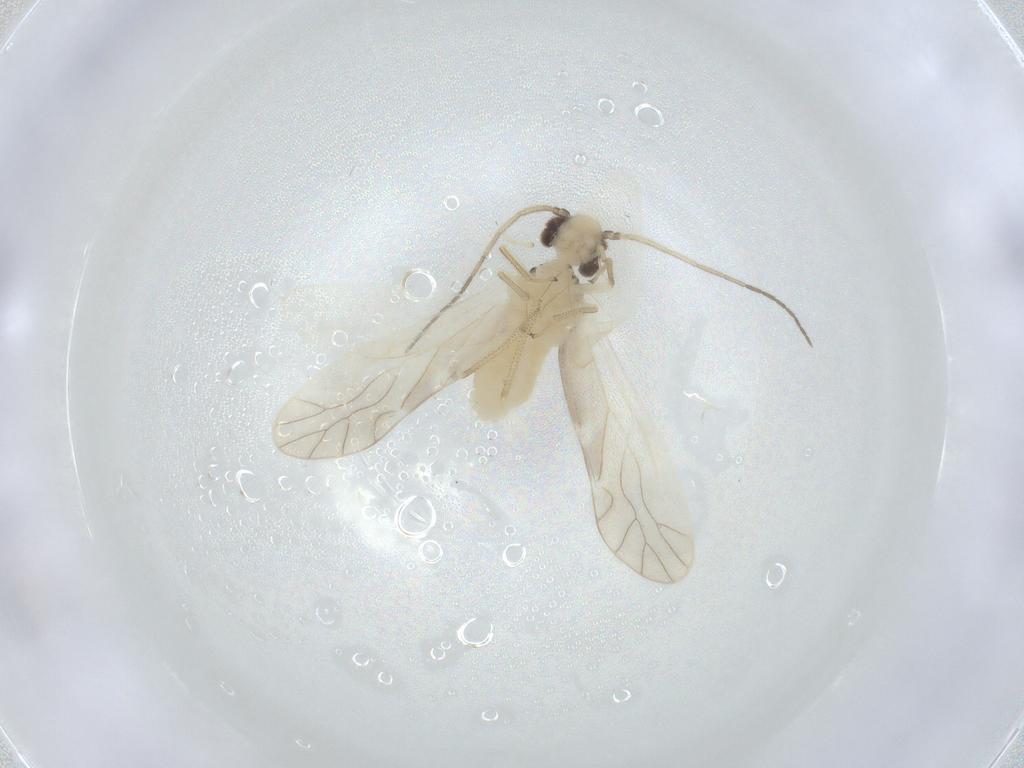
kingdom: Animalia
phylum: Arthropoda
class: Insecta
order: Psocodea
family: Caeciliusidae
